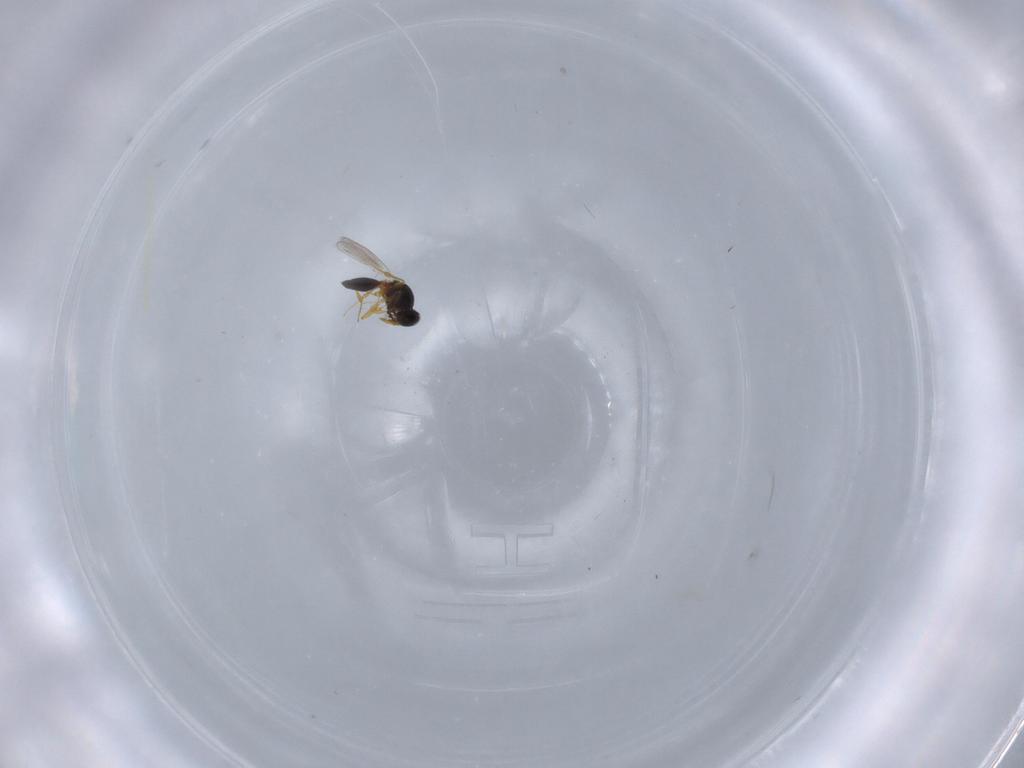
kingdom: Animalia
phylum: Arthropoda
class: Insecta
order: Hymenoptera
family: Platygastridae
